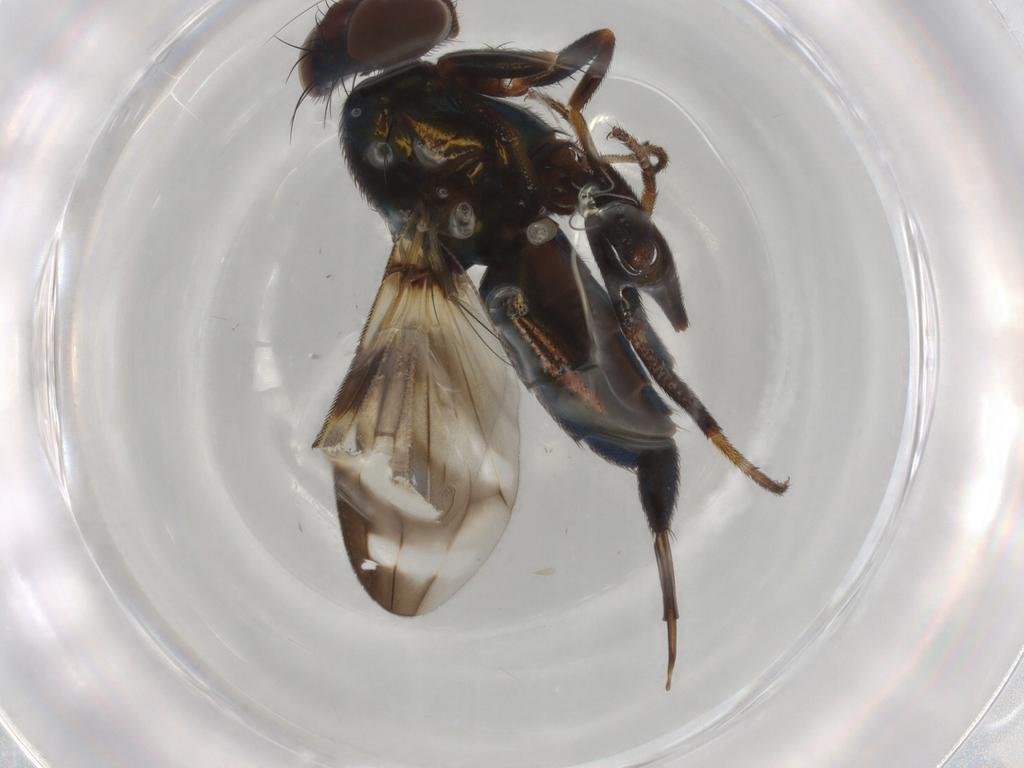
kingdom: Animalia
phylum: Arthropoda
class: Insecta
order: Diptera
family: Ulidiidae
